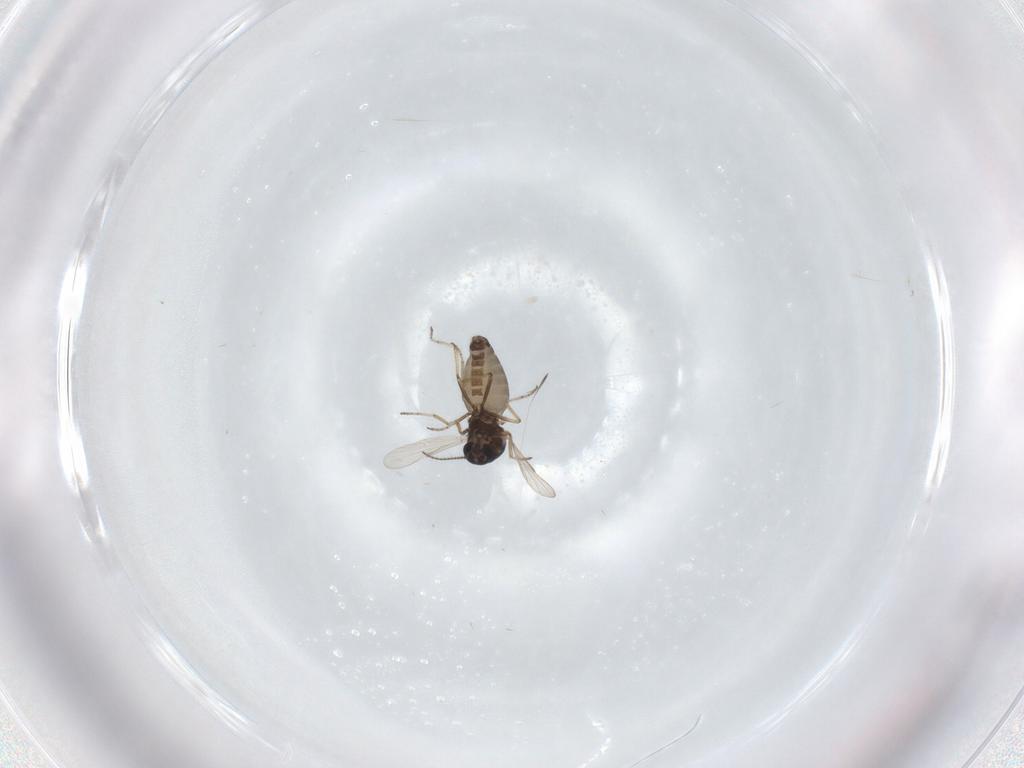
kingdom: Animalia
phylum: Arthropoda
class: Insecta
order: Diptera
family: Ceratopogonidae
